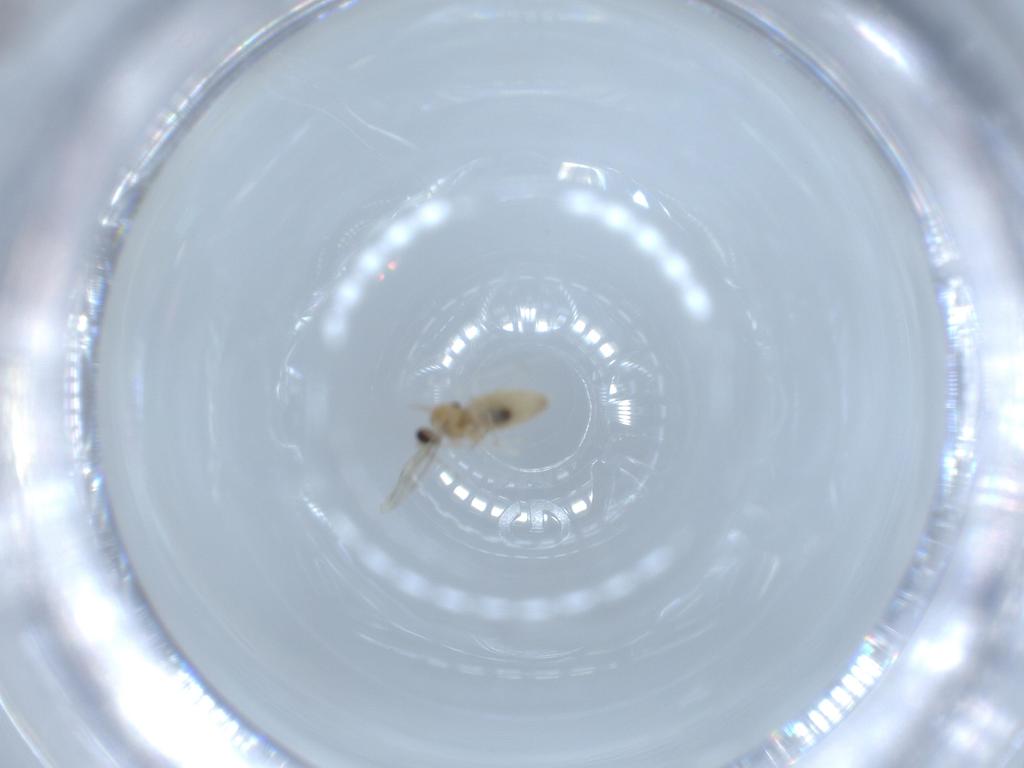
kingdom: Animalia
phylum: Arthropoda
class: Insecta
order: Diptera
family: Cecidomyiidae
